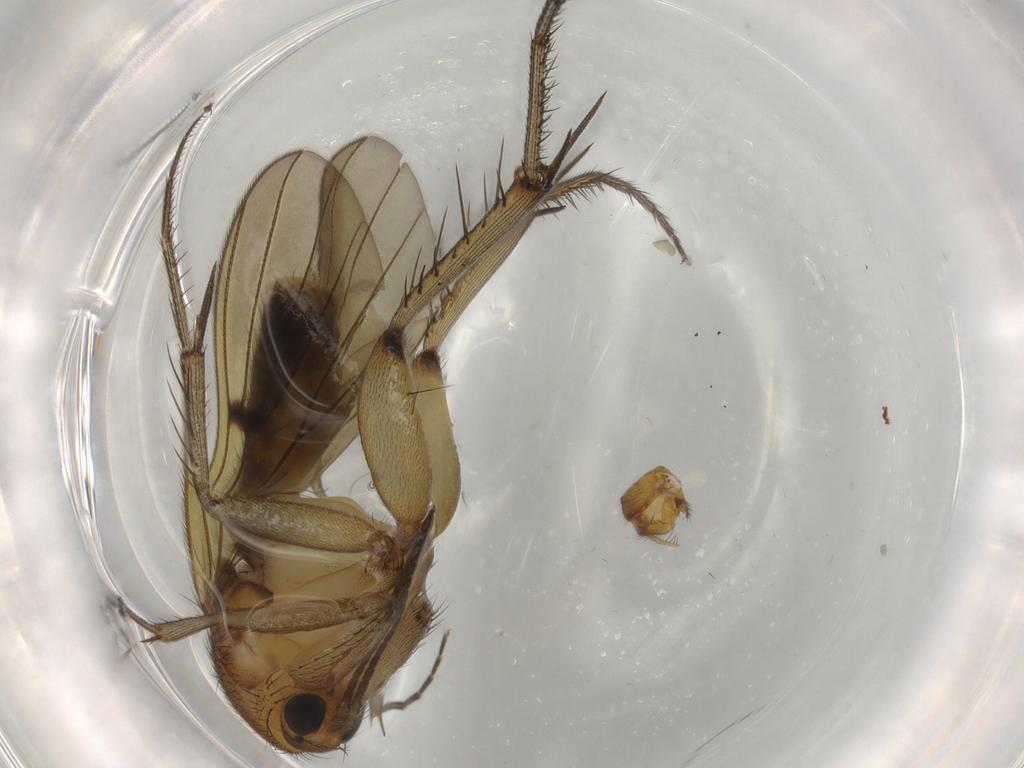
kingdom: Animalia
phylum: Arthropoda
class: Insecta
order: Diptera
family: Mycetophilidae
